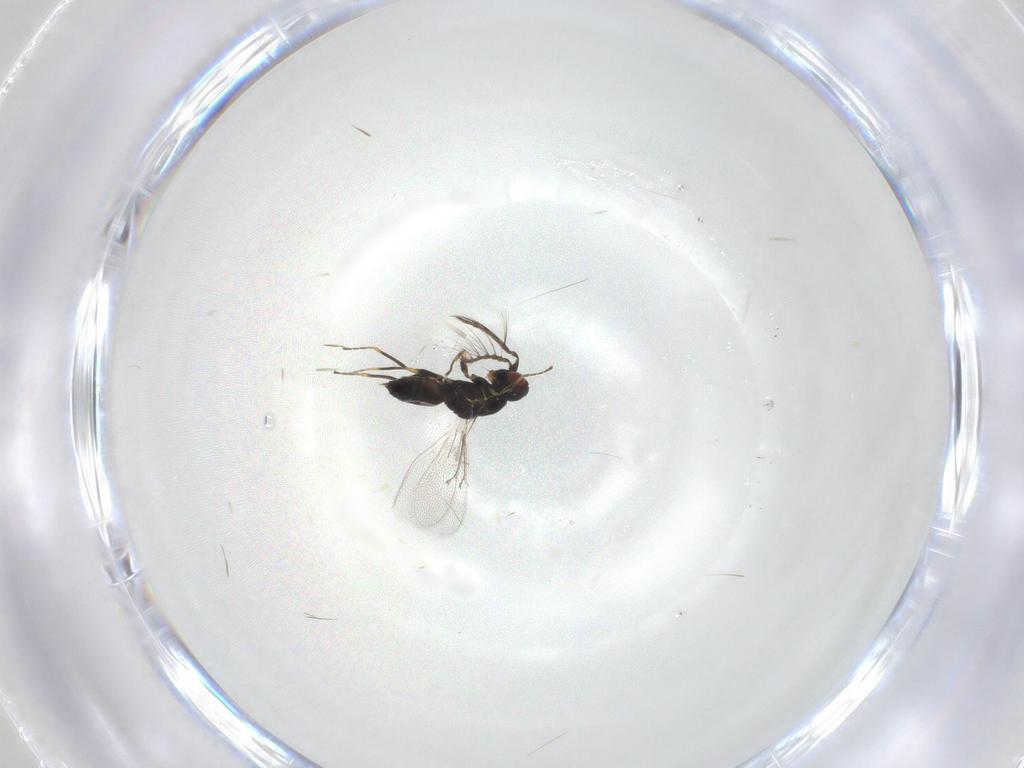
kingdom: Animalia
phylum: Arthropoda
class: Insecta
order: Hymenoptera
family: Eulophidae
